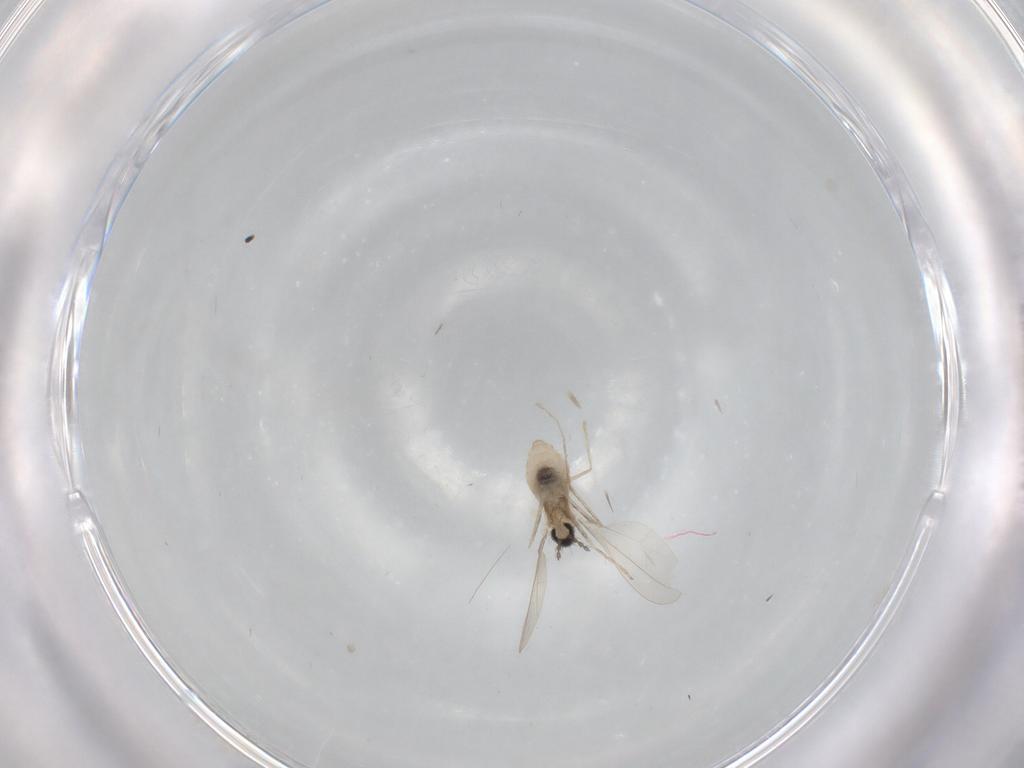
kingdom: Animalia
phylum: Arthropoda
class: Insecta
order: Diptera
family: Cecidomyiidae
